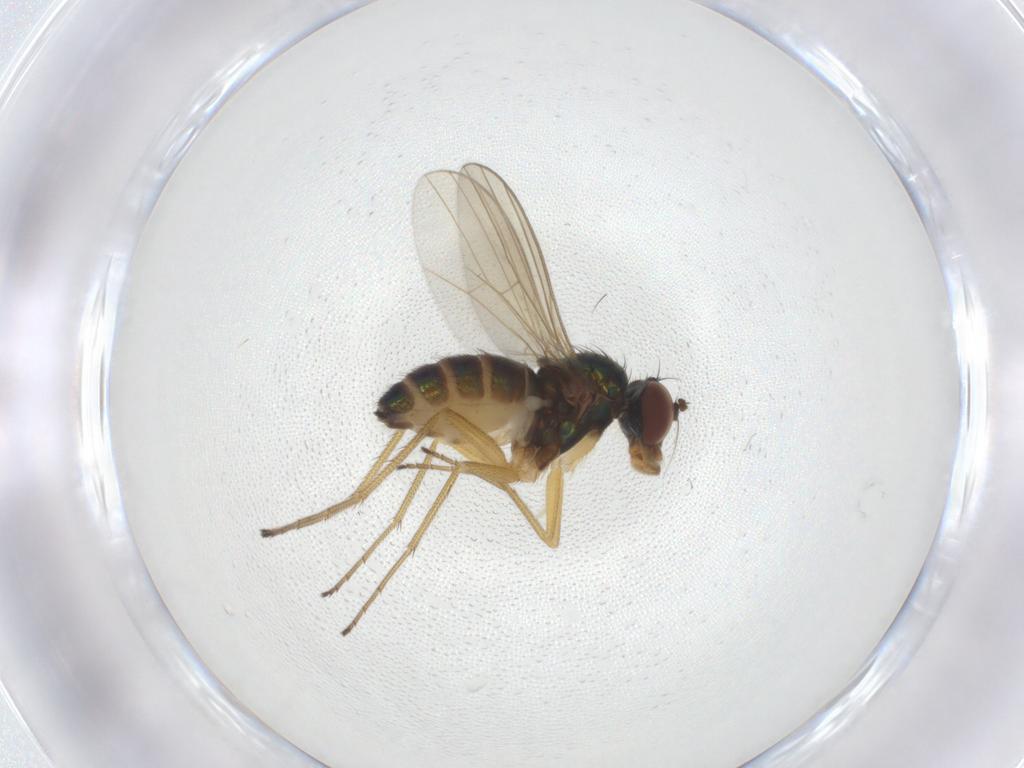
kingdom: Animalia
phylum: Arthropoda
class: Insecta
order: Diptera
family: Dolichopodidae
